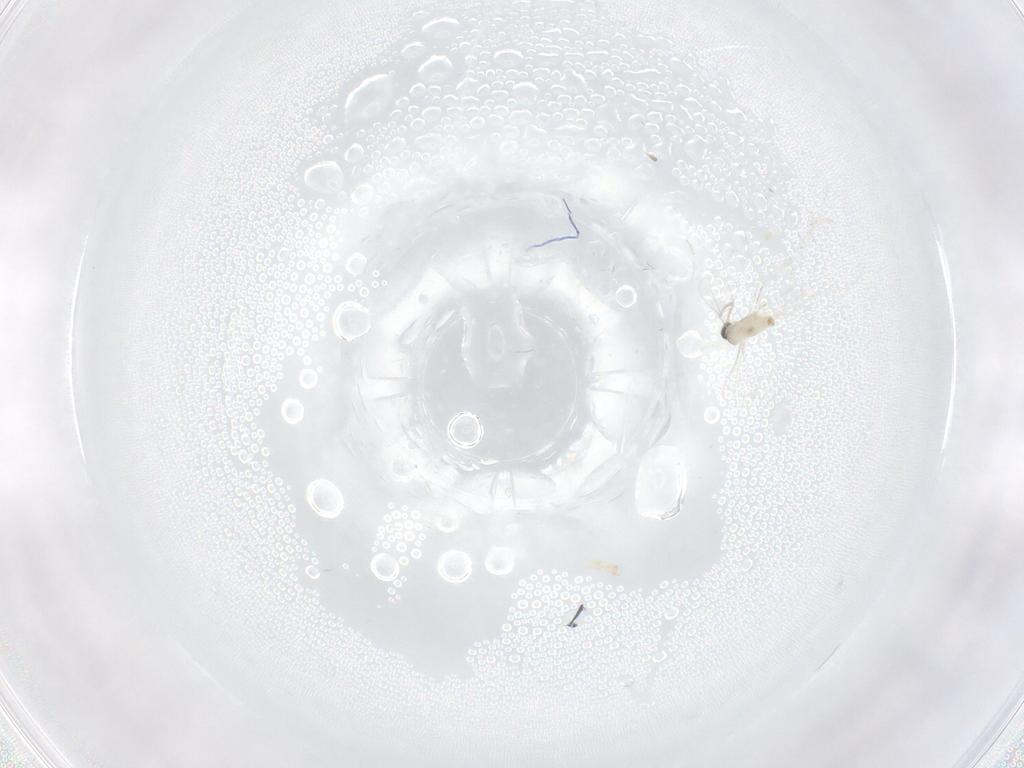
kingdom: Animalia
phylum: Arthropoda
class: Insecta
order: Diptera
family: Cecidomyiidae
